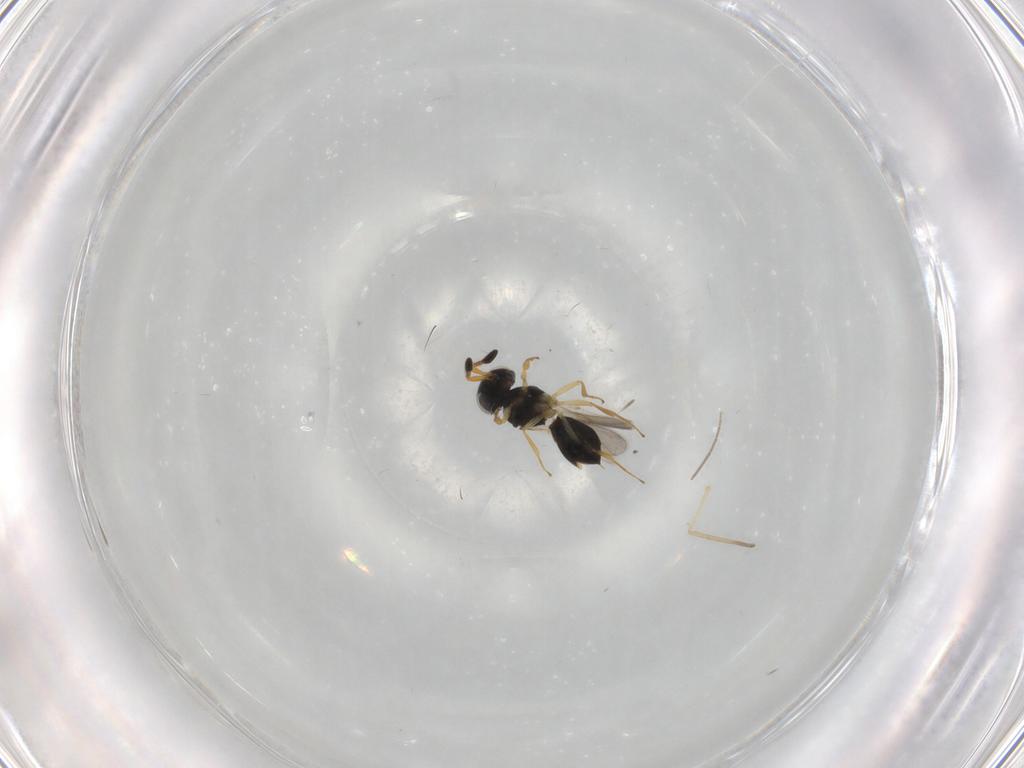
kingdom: Animalia
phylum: Arthropoda
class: Insecta
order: Hymenoptera
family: Scelionidae
